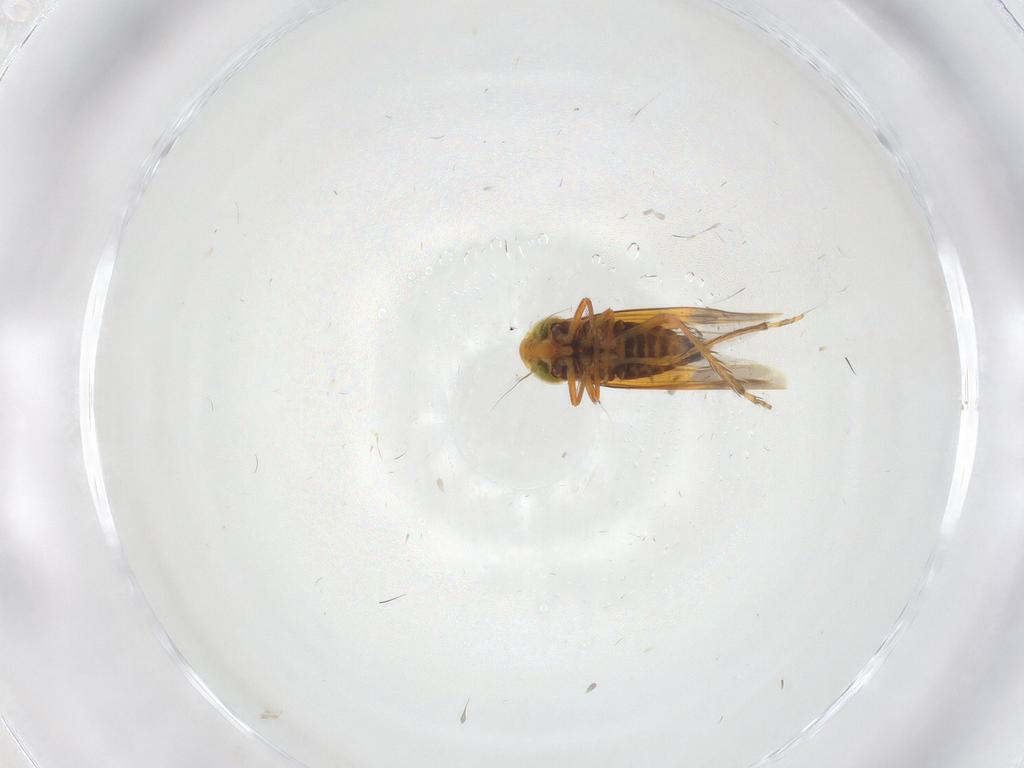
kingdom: Animalia
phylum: Arthropoda
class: Insecta
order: Hemiptera
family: Cicadellidae
